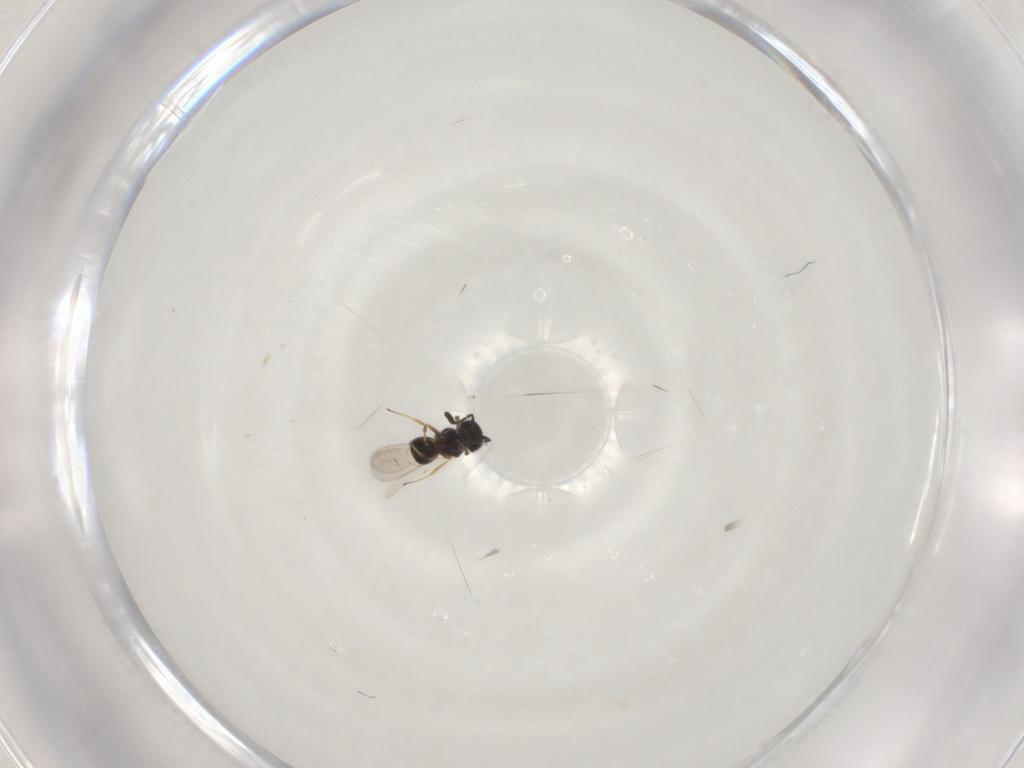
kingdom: Animalia
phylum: Arthropoda
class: Insecta
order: Hymenoptera
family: Scelionidae
